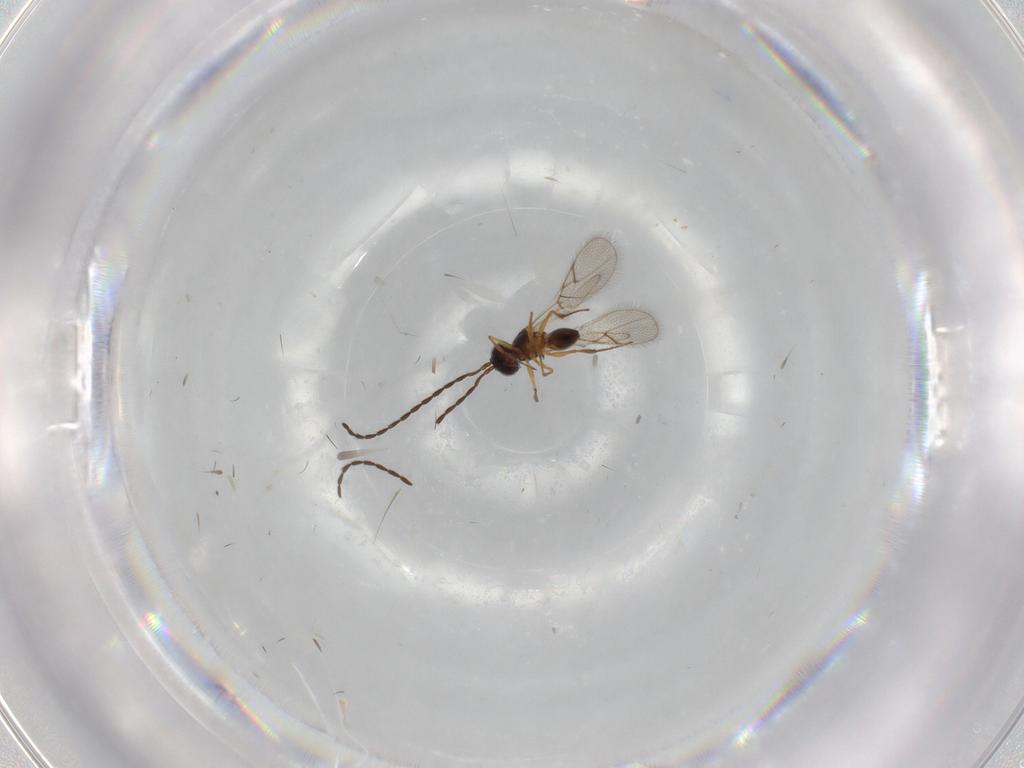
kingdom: Animalia
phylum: Arthropoda
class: Insecta
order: Hymenoptera
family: Figitidae
